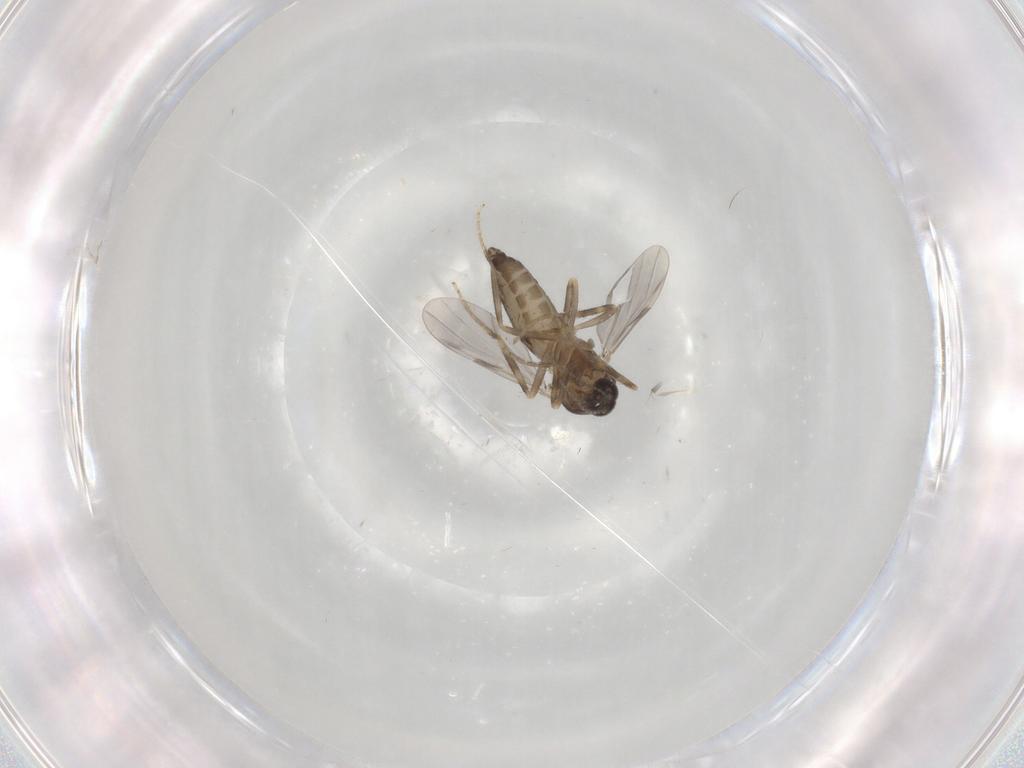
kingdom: Animalia
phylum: Arthropoda
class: Insecta
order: Diptera
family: Ceratopogonidae
